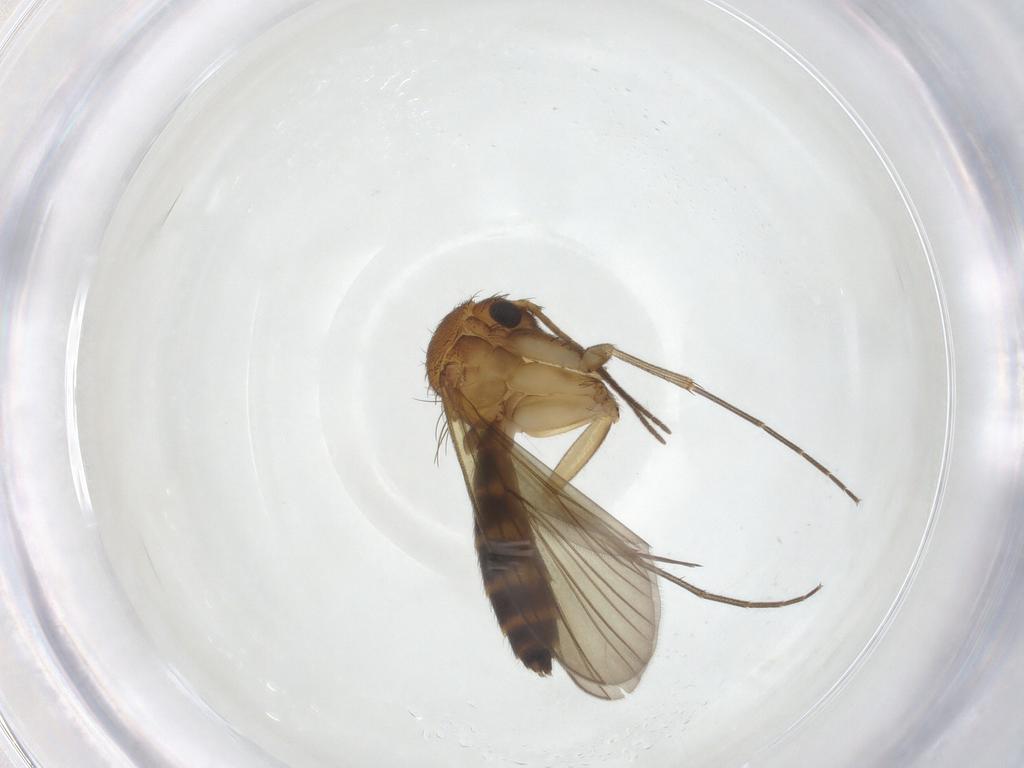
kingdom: Animalia
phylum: Arthropoda
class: Insecta
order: Diptera
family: Mycetophilidae
